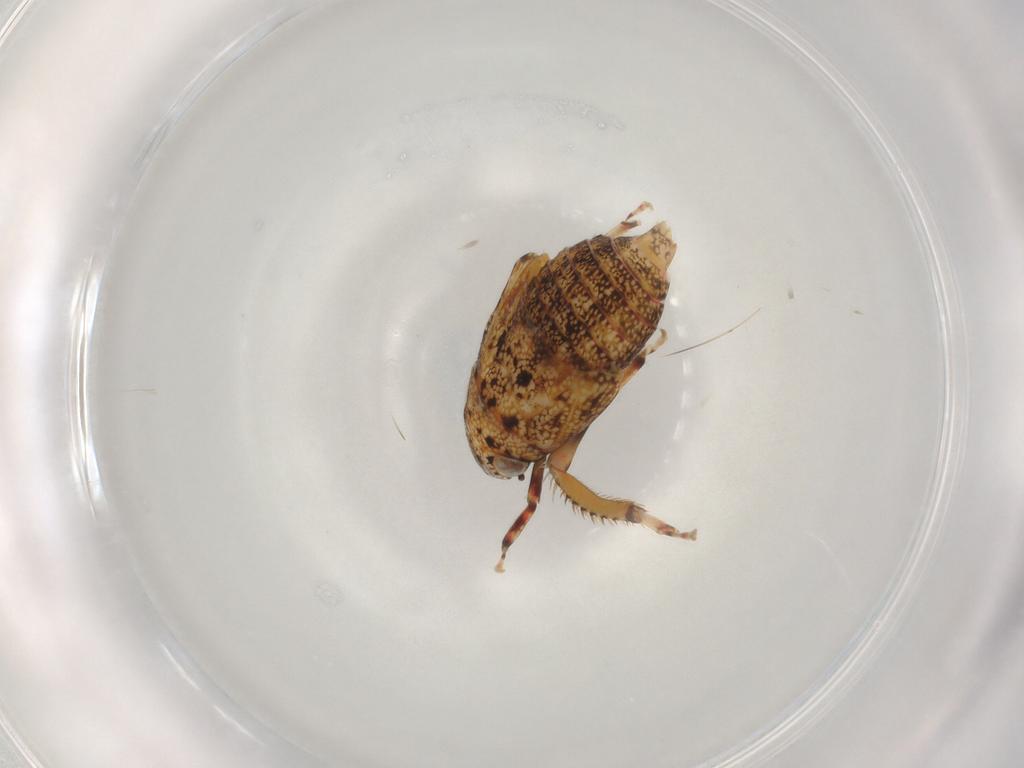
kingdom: Animalia
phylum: Arthropoda
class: Insecta
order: Hemiptera
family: Cicadellidae
